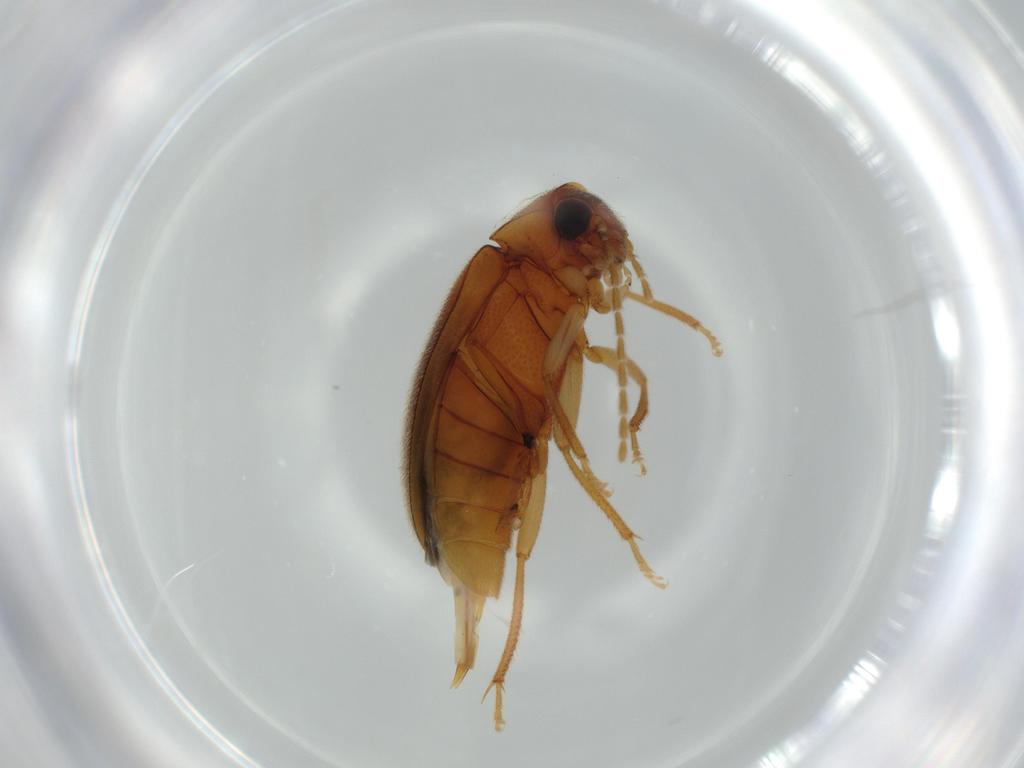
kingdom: Animalia
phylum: Arthropoda
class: Insecta
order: Coleoptera
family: Ptilodactylidae
